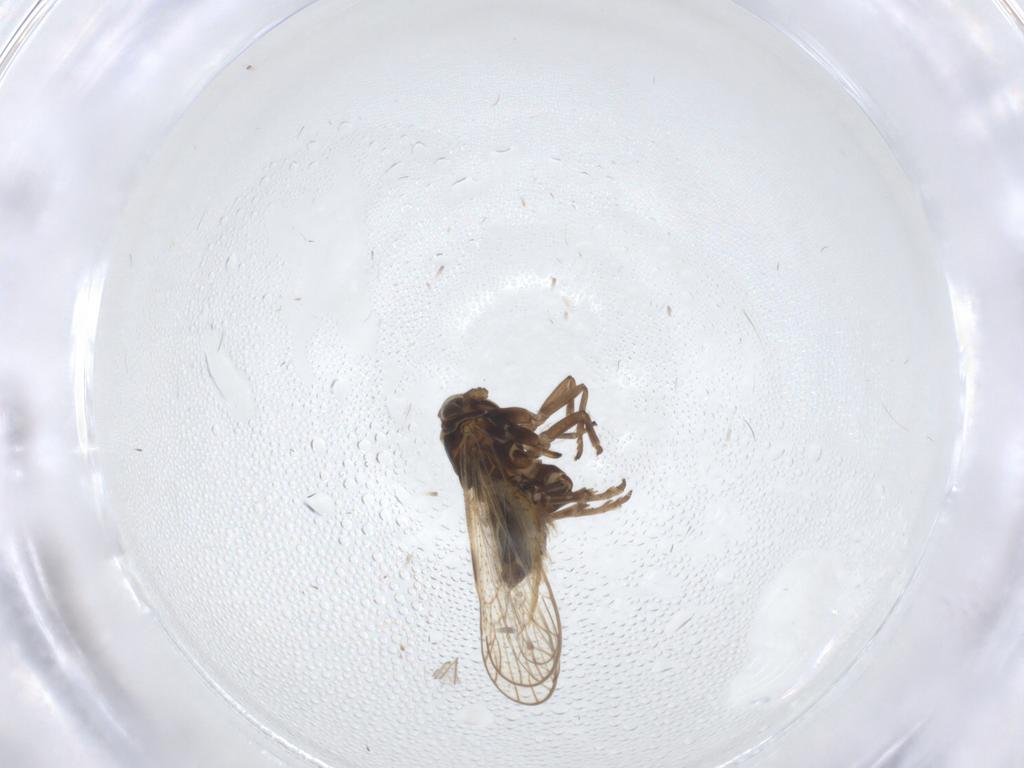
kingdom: Animalia
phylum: Arthropoda
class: Insecta
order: Hemiptera
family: Delphacidae
